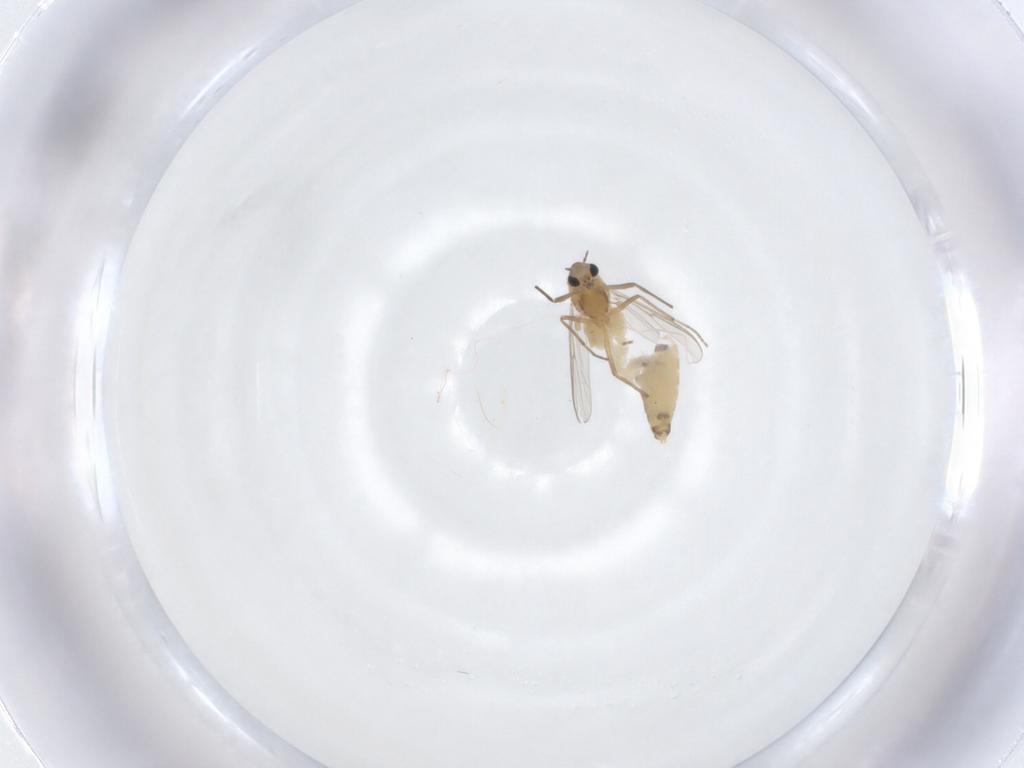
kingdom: Animalia
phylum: Arthropoda
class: Insecta
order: Diptera
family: Chironomidae
